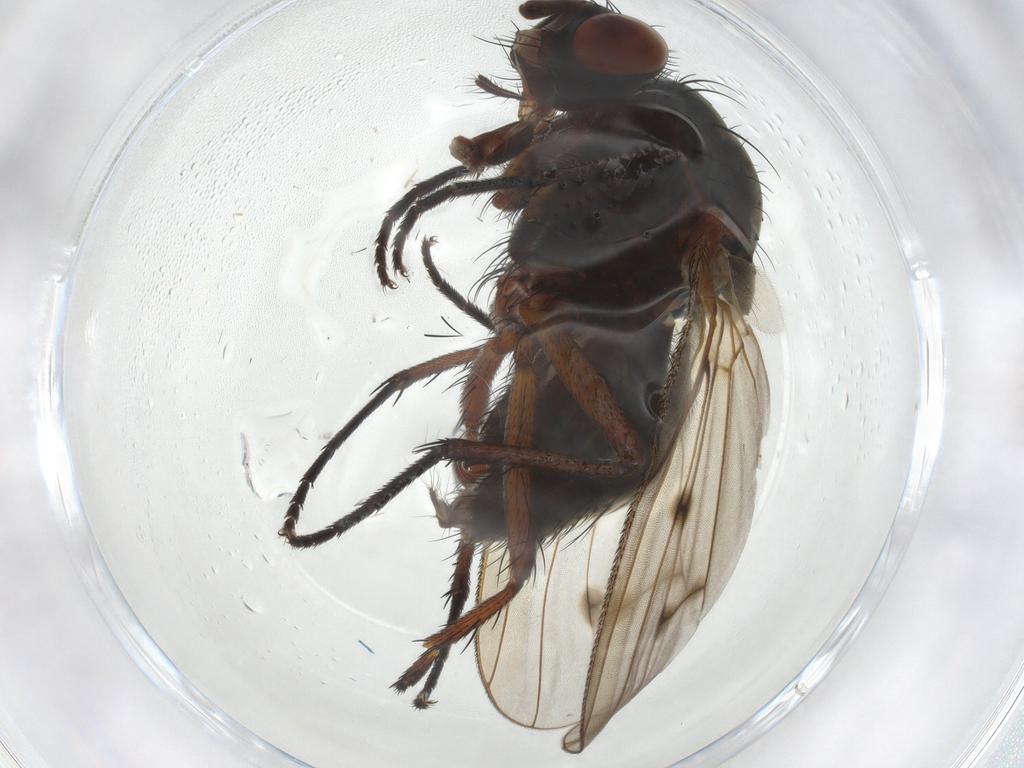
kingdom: Animalia
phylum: Arthropoda
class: Insecta
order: Diptera
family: Anthomyiidae
